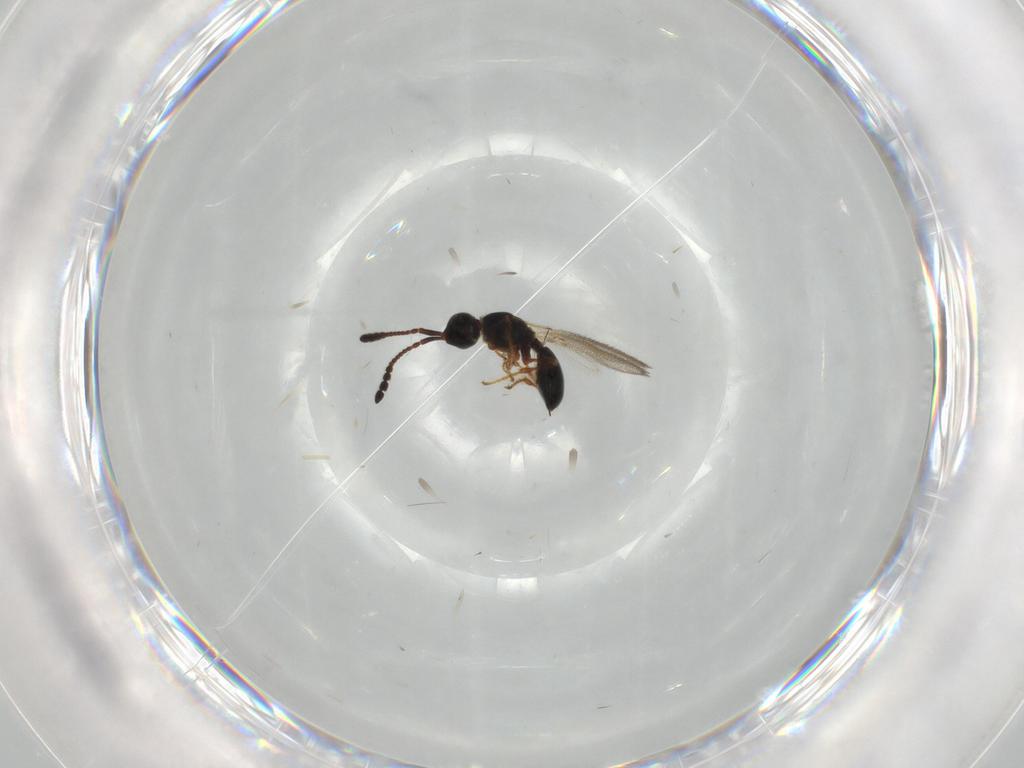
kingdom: Animalia
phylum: Arthropoda
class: Insecta
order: Hymenoptera
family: Diapriidae
